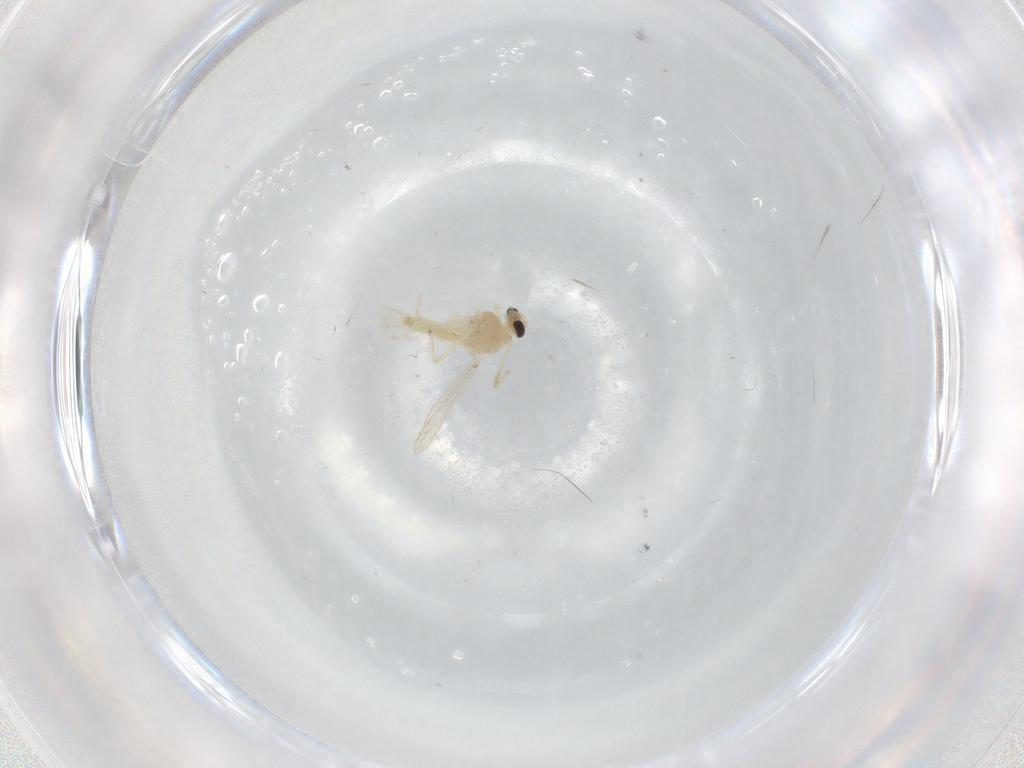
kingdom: Animalia
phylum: Arthropoda
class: Insecta
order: Diptera
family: Chironomidae
